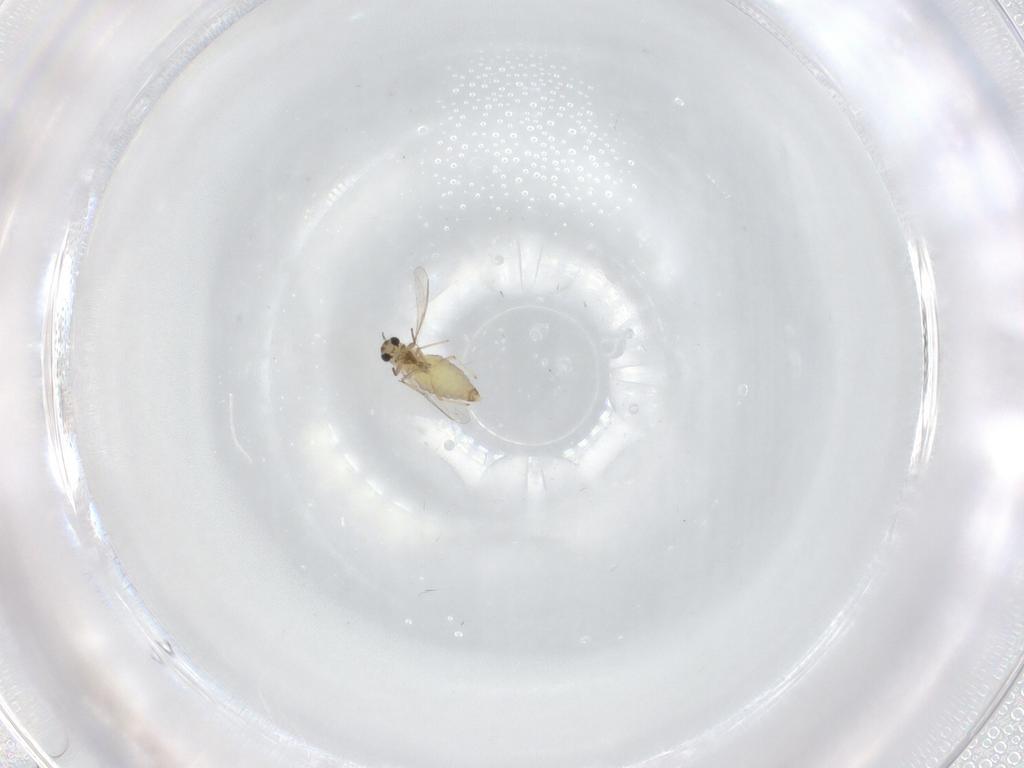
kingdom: Animalia
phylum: Arthropoda
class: Insecta
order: Diptera
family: Chironomidae
